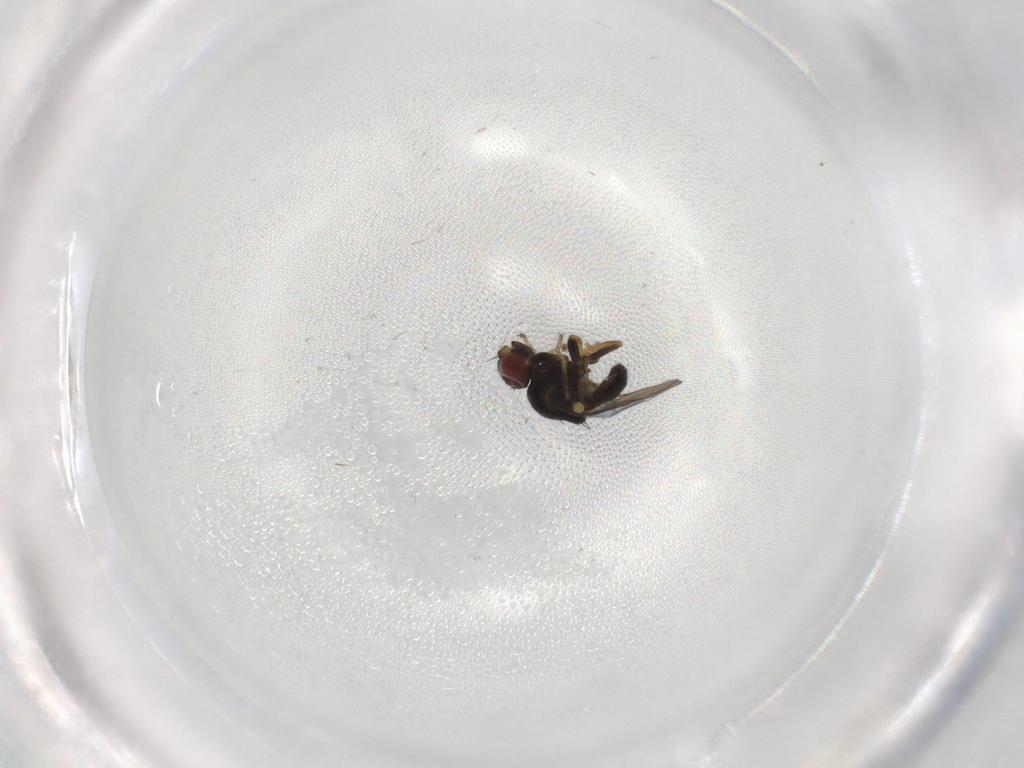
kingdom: Animalia
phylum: Arthropoda
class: Insecta
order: Diptera
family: Chloropidae
